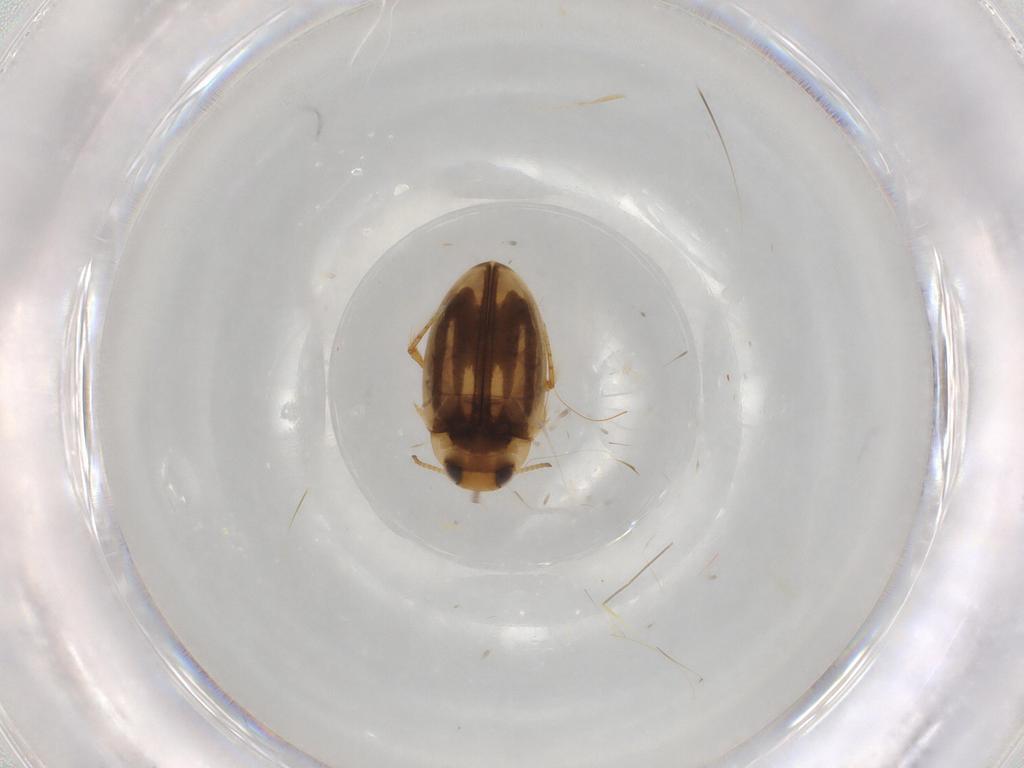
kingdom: Animalia
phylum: Arthropoda
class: Insecta
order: Coleoptera
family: Dytiscidae
